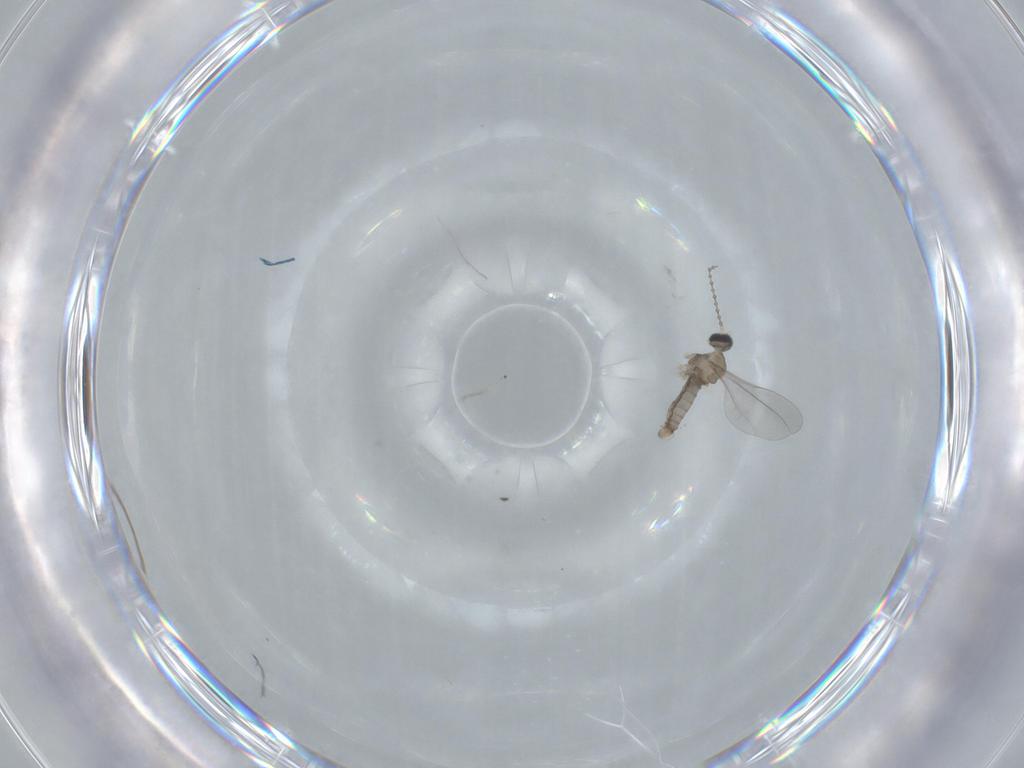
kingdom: Animalia
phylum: Arthropoda
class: Insecta
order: Diptera
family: Cecidomyiidae
